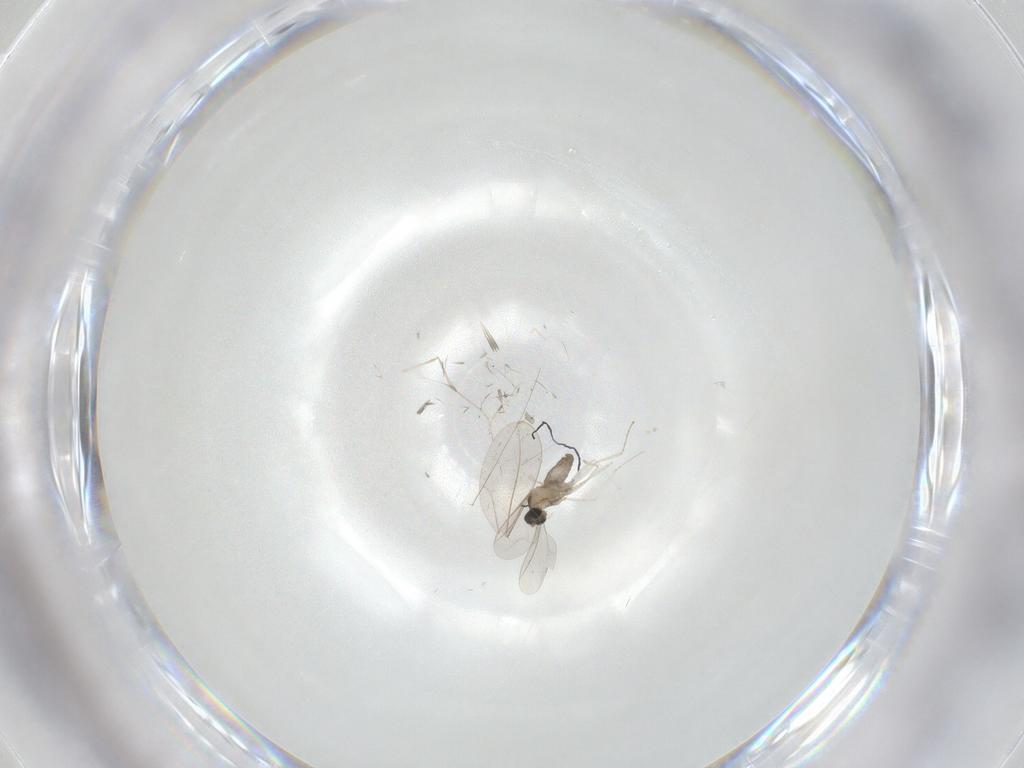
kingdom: Animalia
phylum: Arthropoda
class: Insecta
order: Diptera
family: Cecidomyiidae
